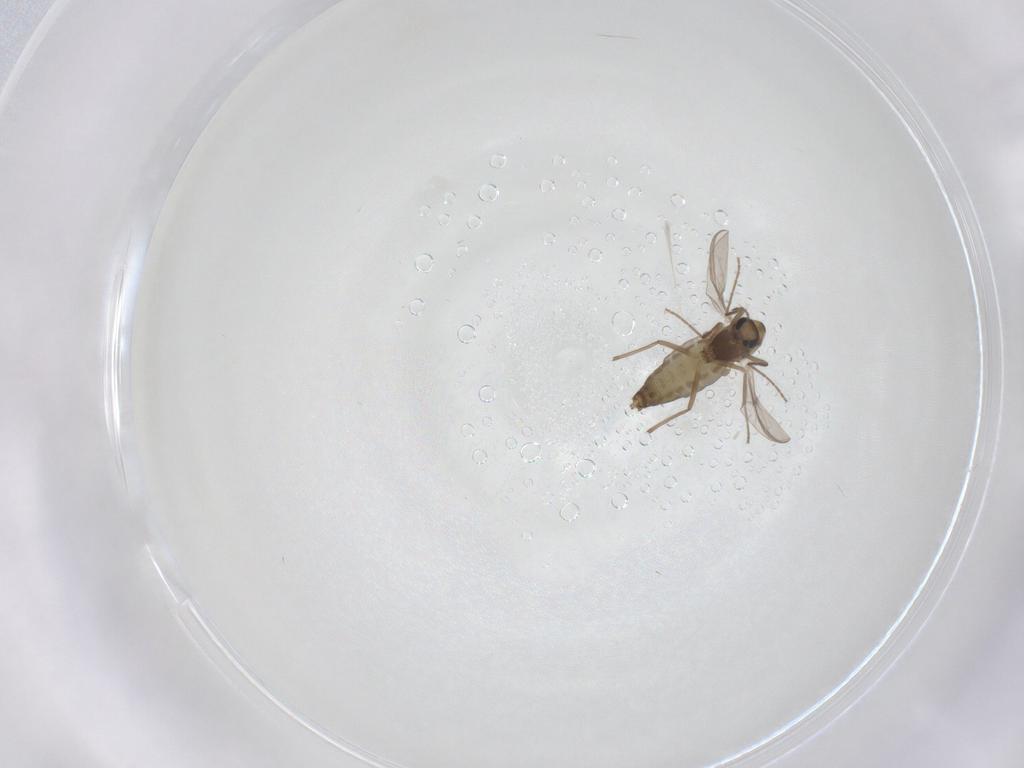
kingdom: Animalia
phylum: Arthropoda
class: Insecta
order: Diptera
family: Chironomidae
